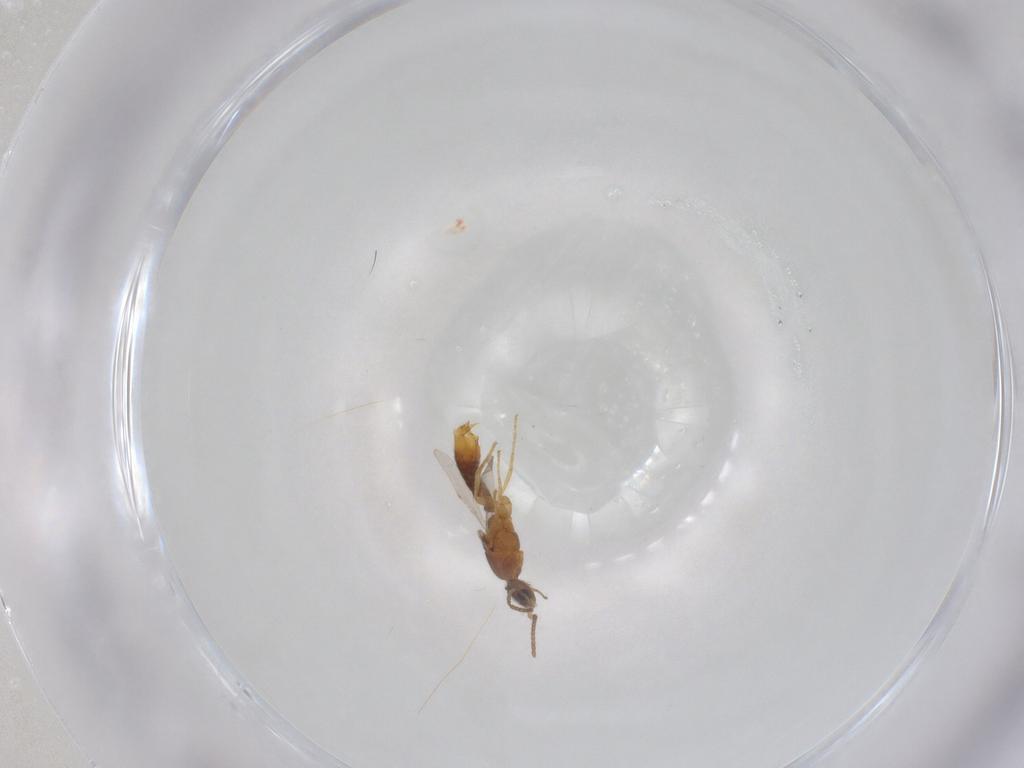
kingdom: Animalia
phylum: Arthropoda
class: Insecta
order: Hymenoptera
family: Formicidae
